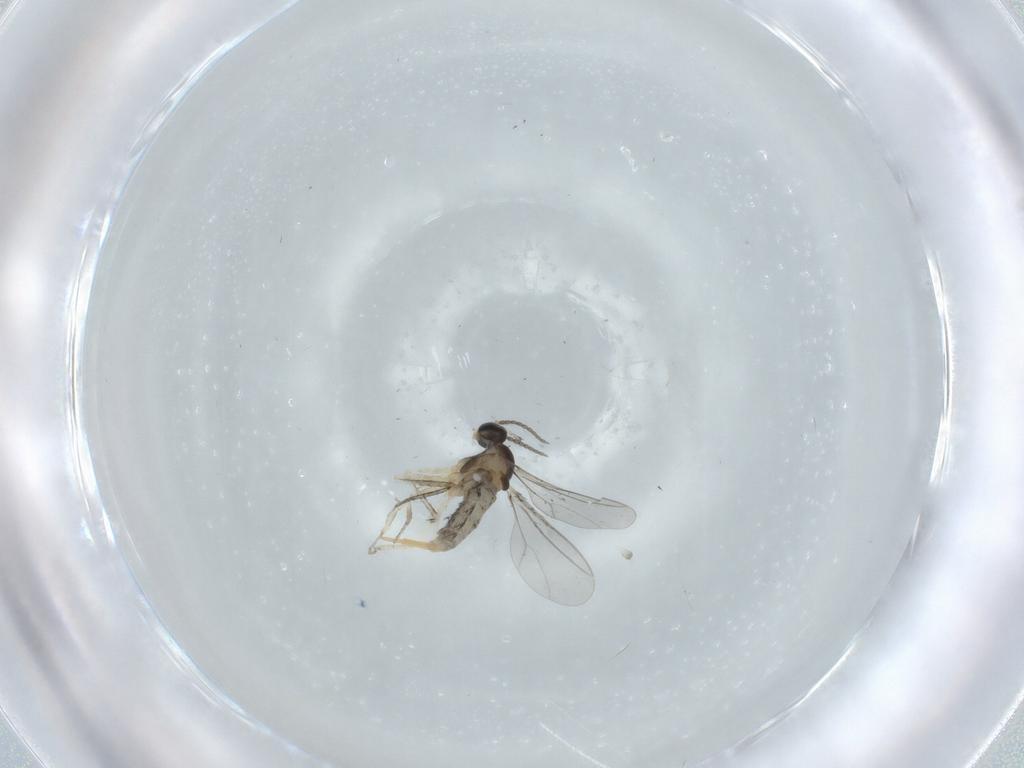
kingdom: Animalia
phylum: Arthropoda
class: Insecta
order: Diptera
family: Cecidomyiidae
